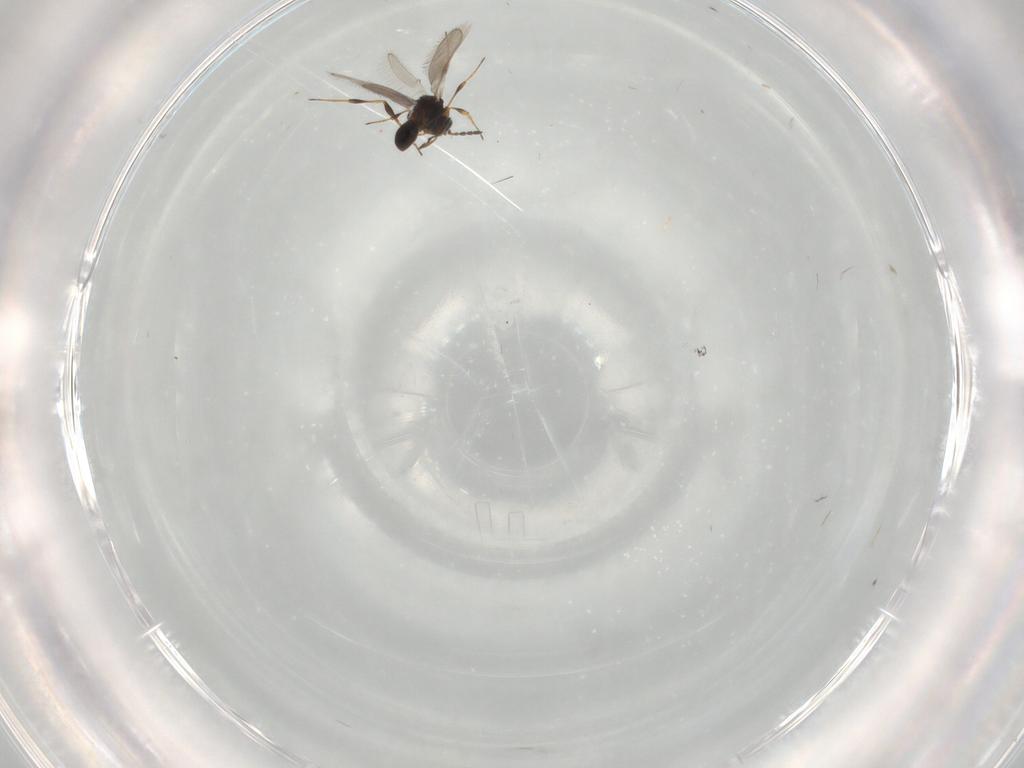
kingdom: Animalia
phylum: Arthropoda
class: Insecta
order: Hymenoptera
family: Platygastridae
